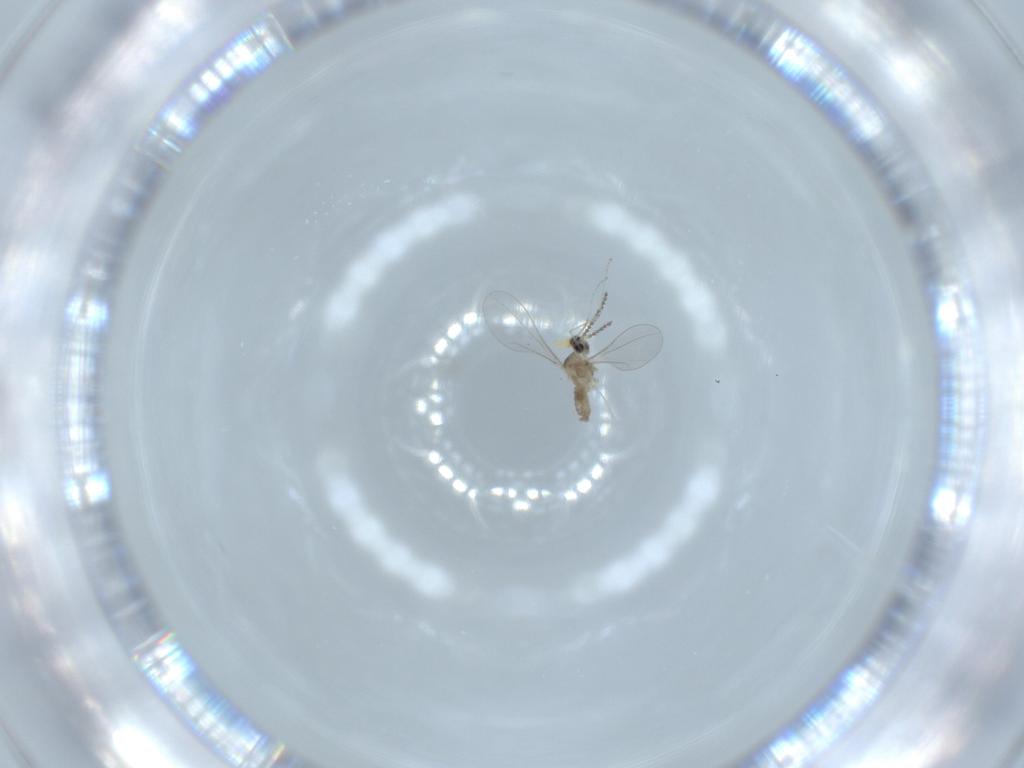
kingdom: Animalia
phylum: Arthropoda
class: Insecta
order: Diptera
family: Cecidomyiidae
